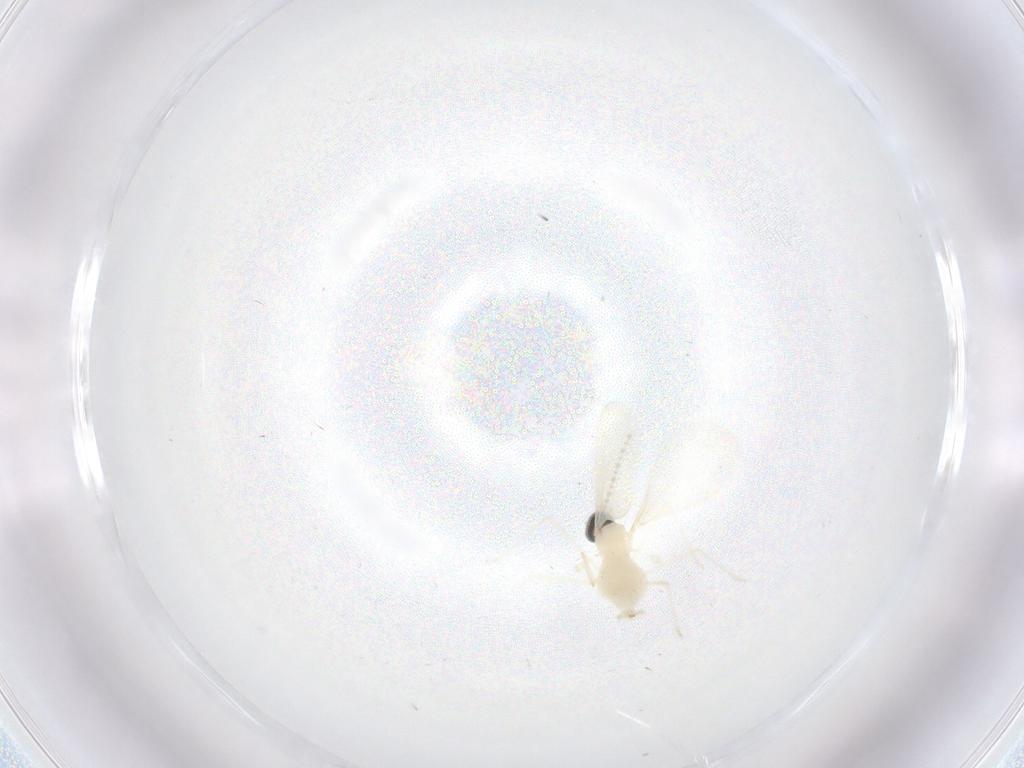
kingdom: Animalia
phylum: Arthropoda
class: Insecta
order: Diptera
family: Cecidomyiidae
